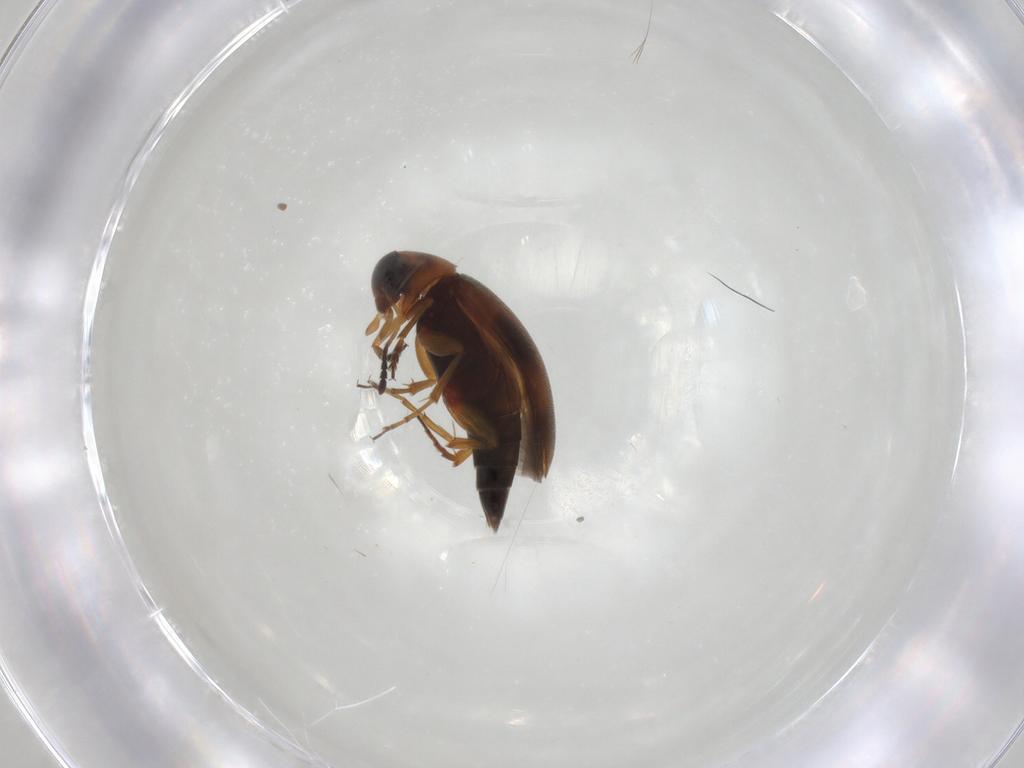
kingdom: Animalia
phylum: Arthropoda
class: Insecta
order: Coleoptera
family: Scraptiidae
